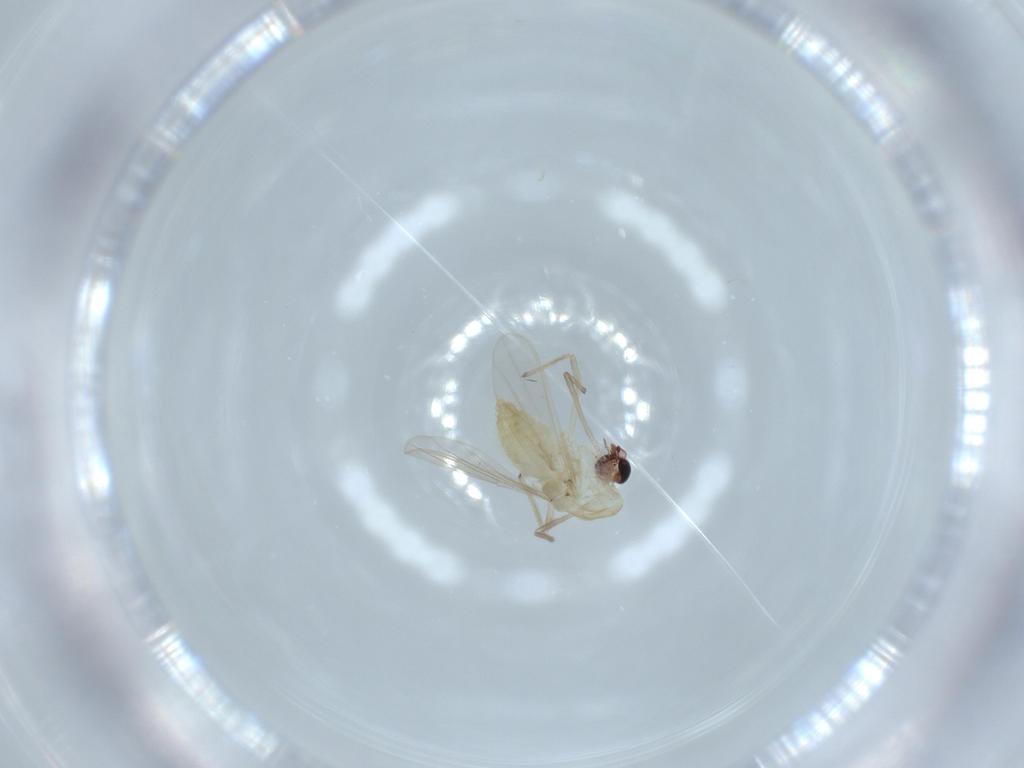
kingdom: Animalia
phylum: Arthropoda
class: Insecta
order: Diptera
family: Chironomidae
